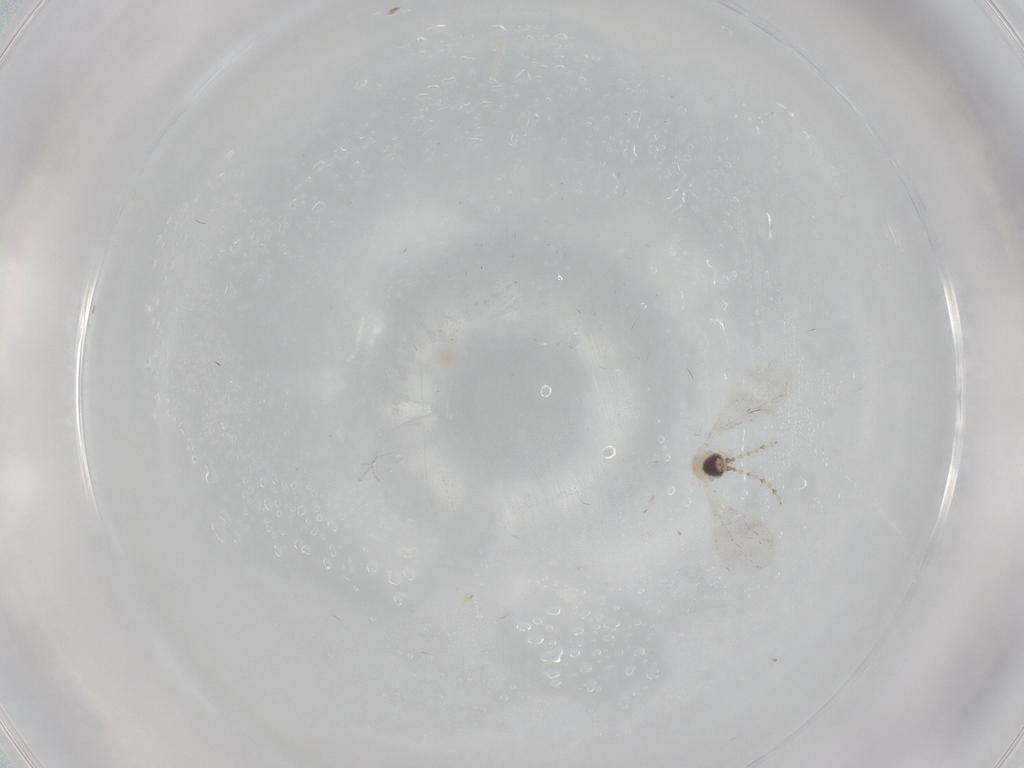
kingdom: Animalia
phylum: Arthropoda
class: Insecta
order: Diptera
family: Cecidomyiidae
